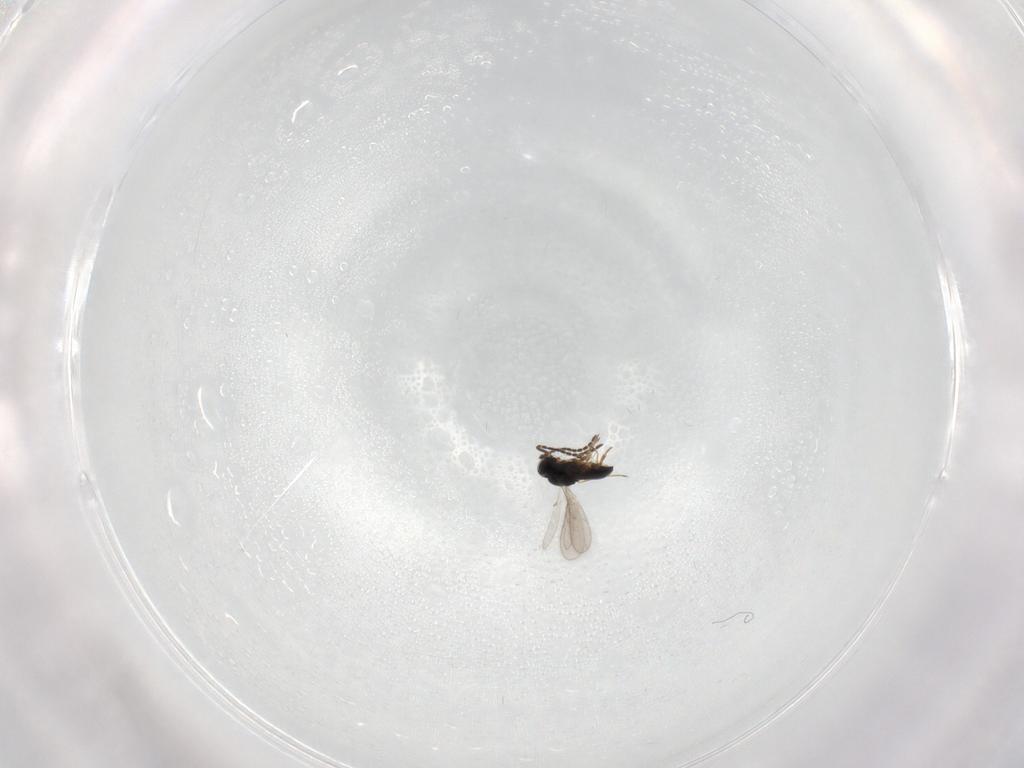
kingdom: Animalia
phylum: Arthropoda
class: Insecta
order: Hymenoptera
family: Scelionidae
